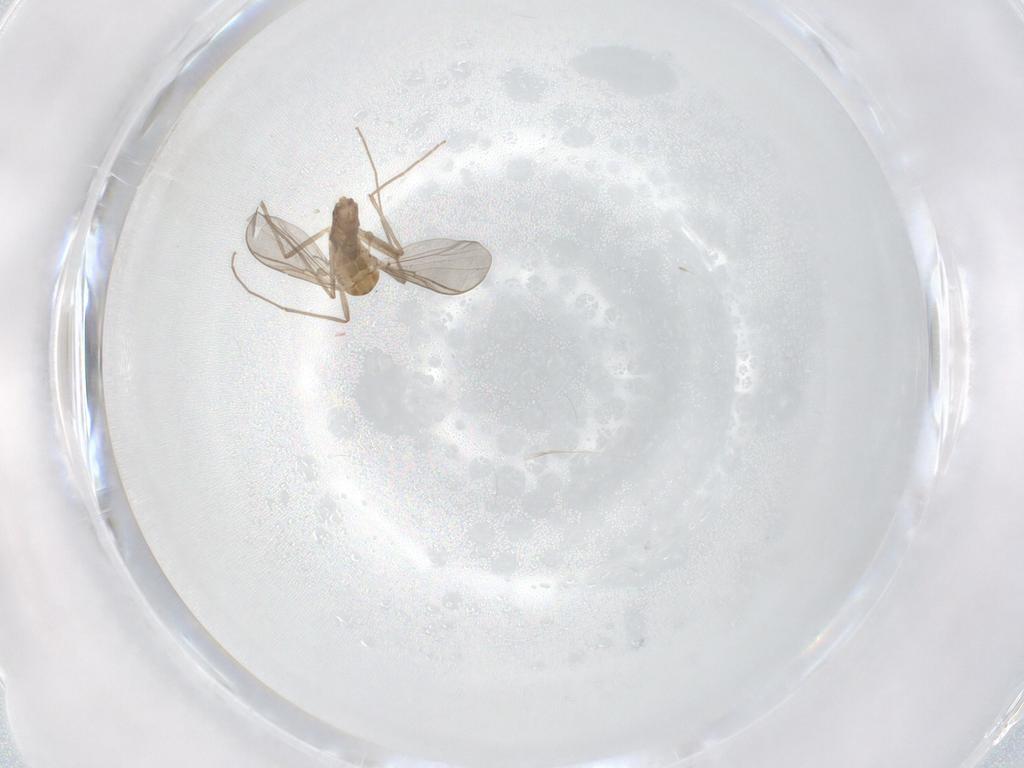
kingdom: Animalia
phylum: Arthropoda
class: Insecta
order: Diptera
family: Chironomidae
